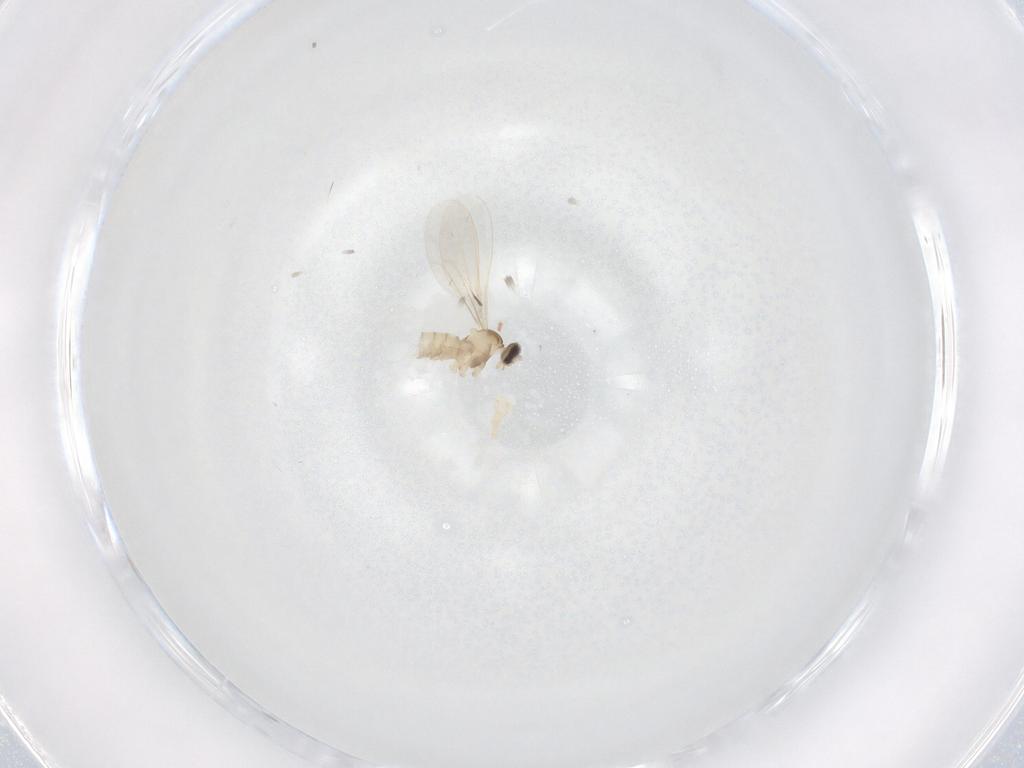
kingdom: Animalia
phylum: Arthropoda
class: Insecta
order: Diptera
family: Cecidomyiidae
